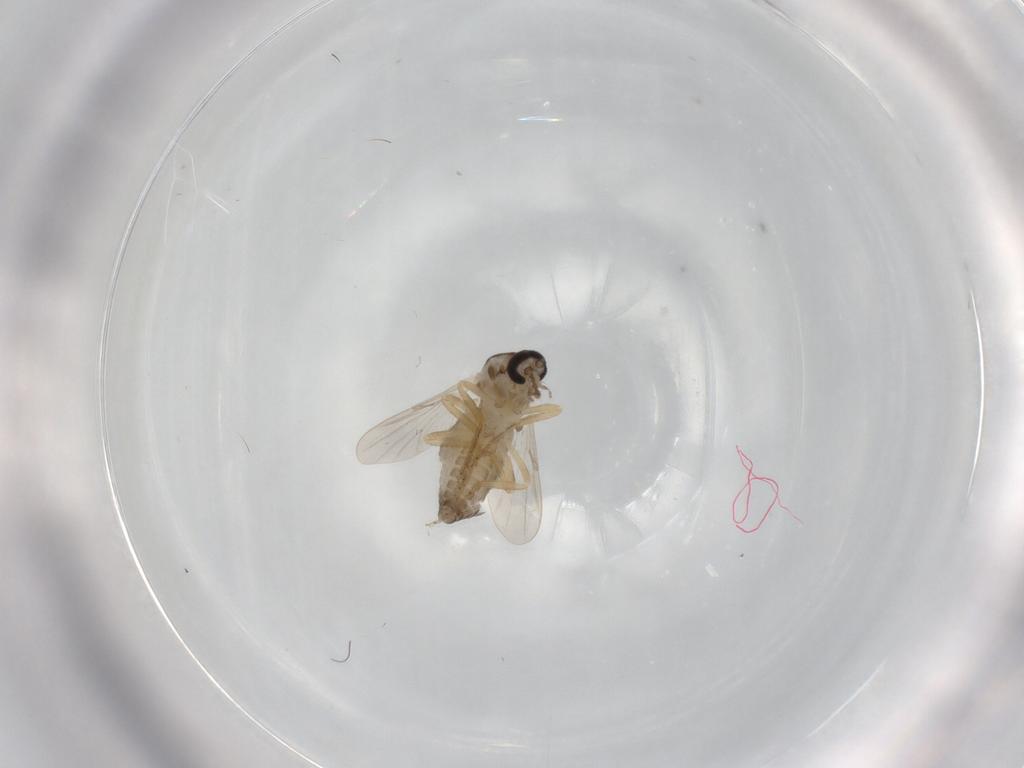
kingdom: Animalia
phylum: Arthropoda
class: Insecta
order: Diptera
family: Ceratopogonidae
